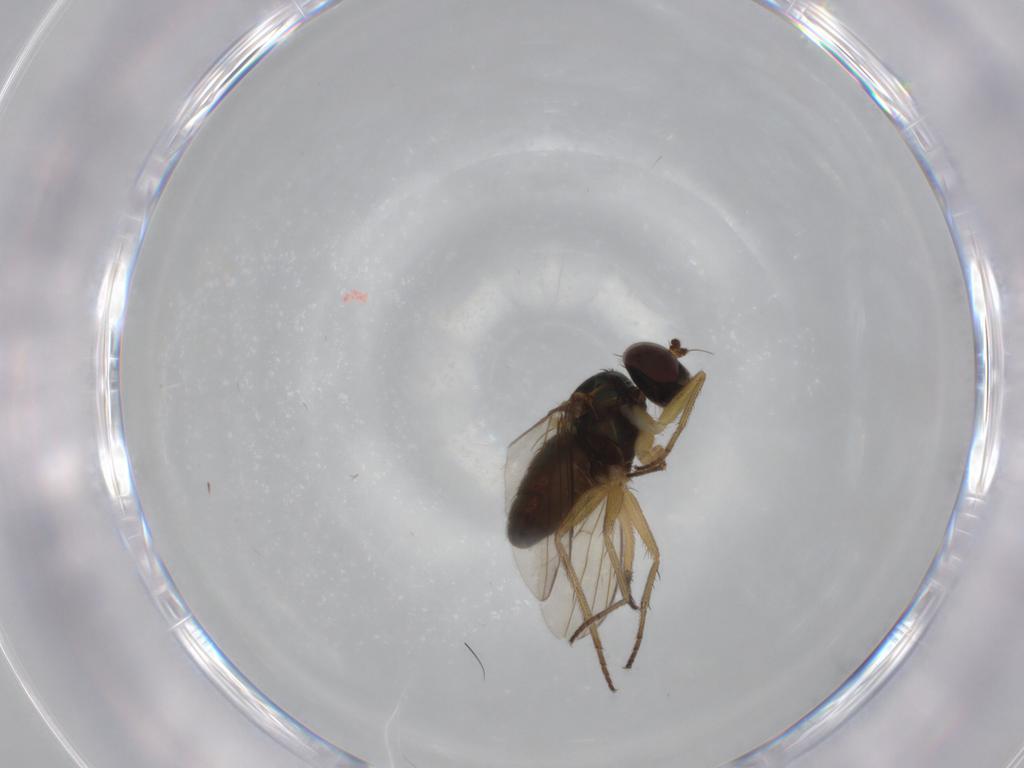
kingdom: Animalia
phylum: Arthropoda
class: Insecta
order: Diptera
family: Dolichopodidae
